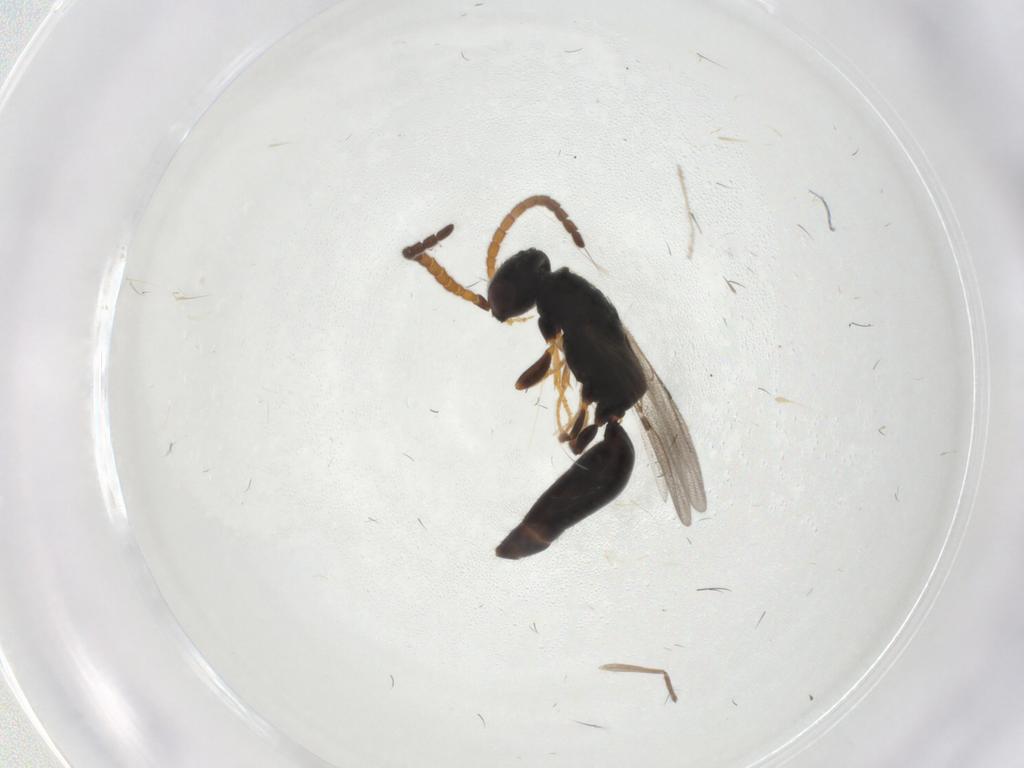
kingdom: Animalia
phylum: Arthropoda
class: Insecta
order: Hymenoptera
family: Bethylidae
